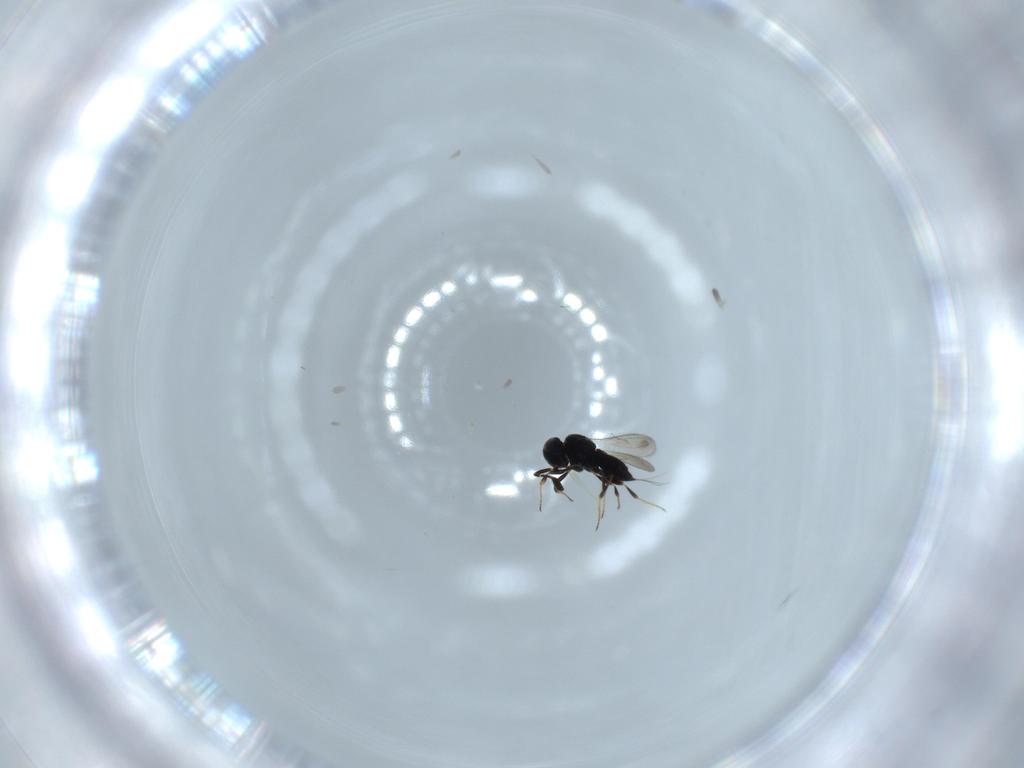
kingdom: Animalia
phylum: Arthropoda
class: Insecta
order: Hymenoptera
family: Scelionidae
